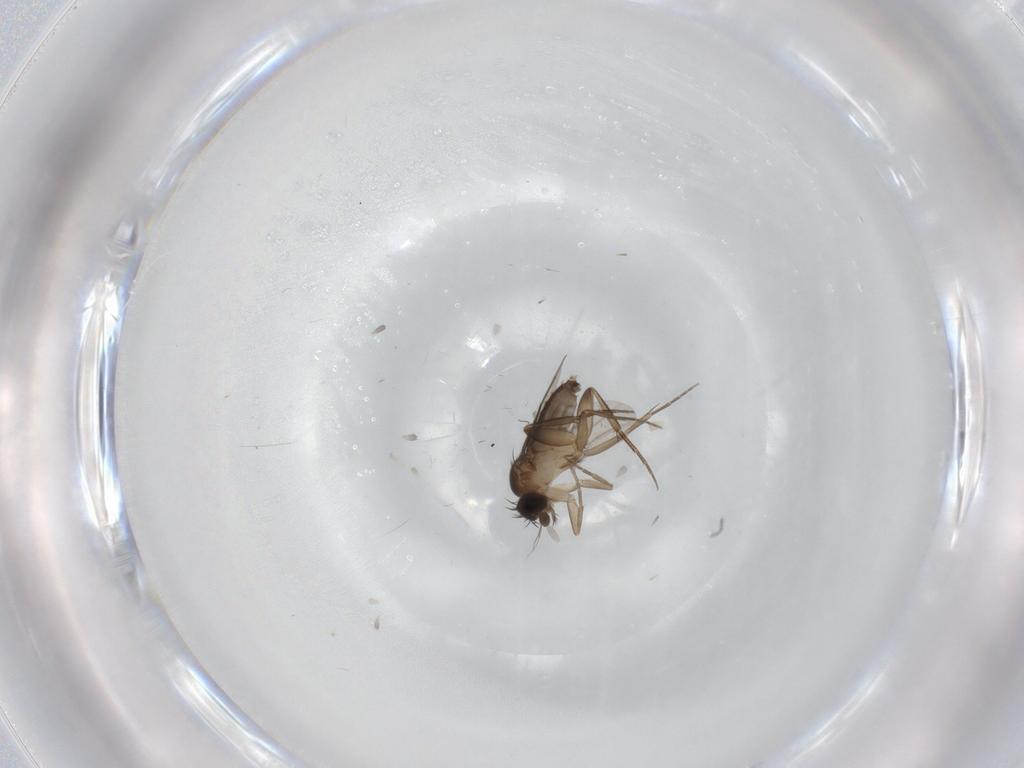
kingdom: Animalia
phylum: Arthropoda
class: Insecta
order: Diptera
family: Phoridae
